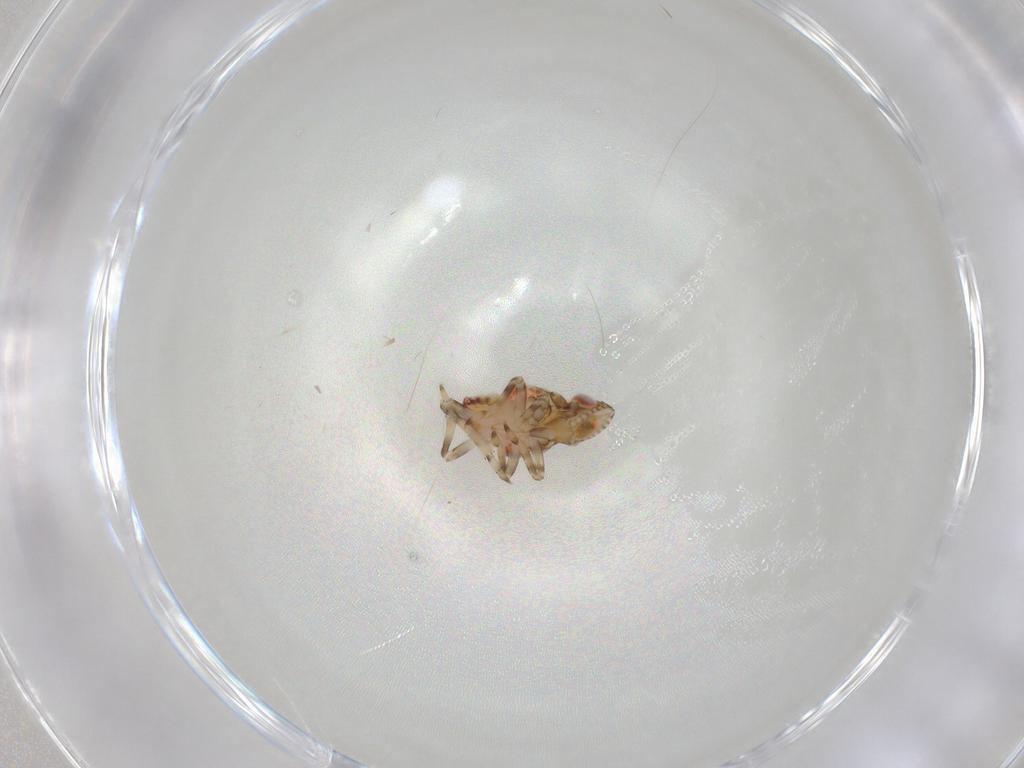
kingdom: Animalia
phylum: Arthropoda
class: Insecta
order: Hemiptera
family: Tropiduchidae
